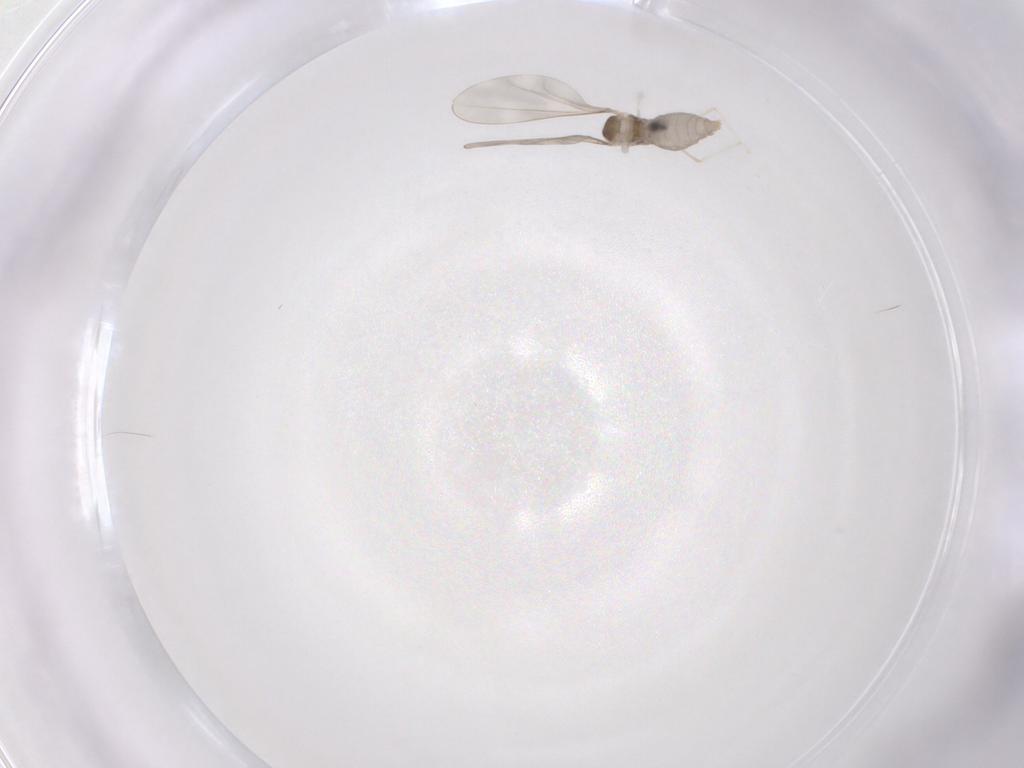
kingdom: Animalia
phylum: Arthropoda
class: Insecta
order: Diptera
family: Cecidomyiidae
